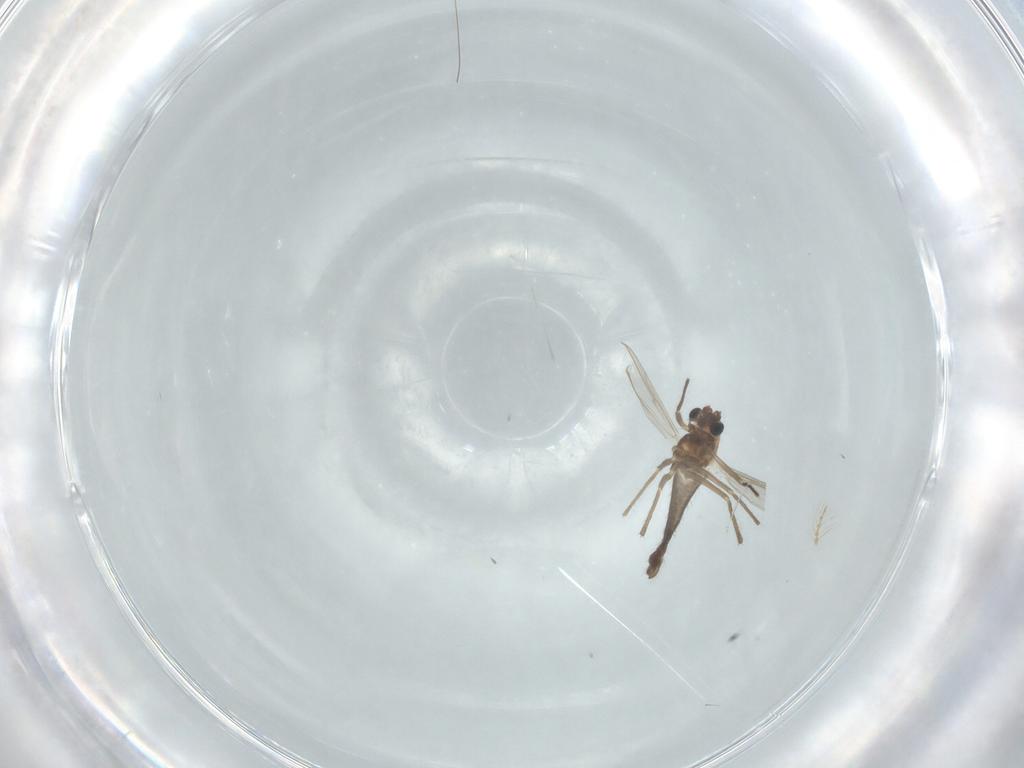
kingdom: Animalia
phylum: Arthropoda
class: Insecta
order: Diptera
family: Chironomidae
